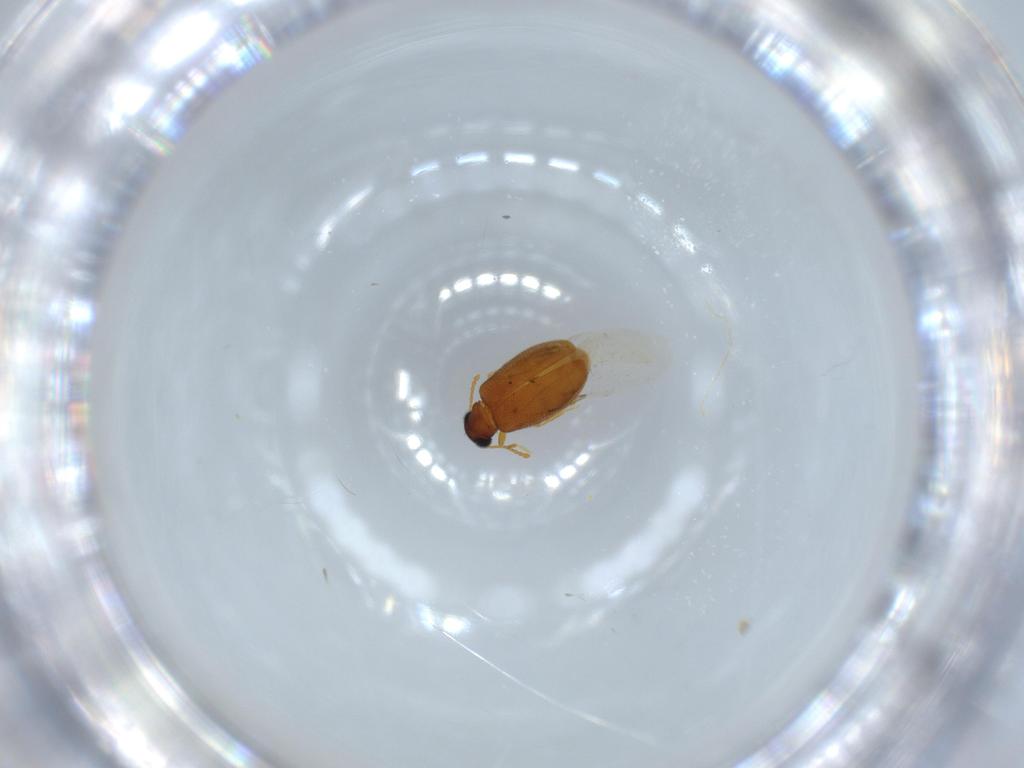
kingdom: Animalia
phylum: Arthropoda
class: Insecta
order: Coleoptera
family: Aderidae
